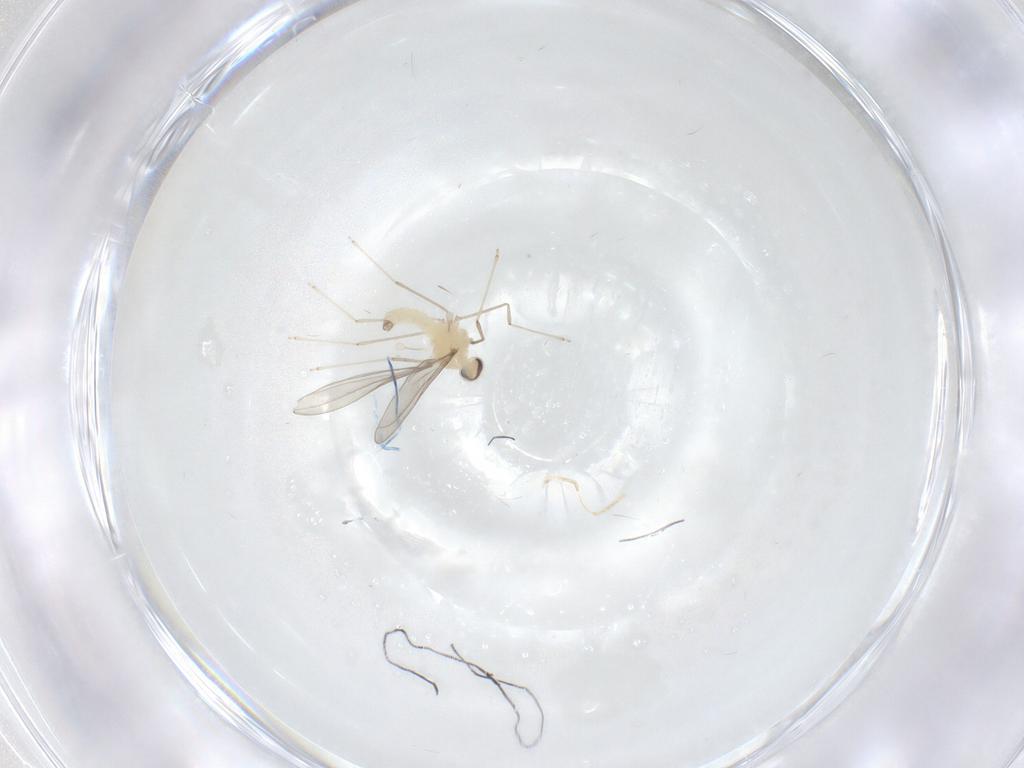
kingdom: Animalia
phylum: Arthropoda
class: Insecta
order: Diptera
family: Cecidomyiidae
